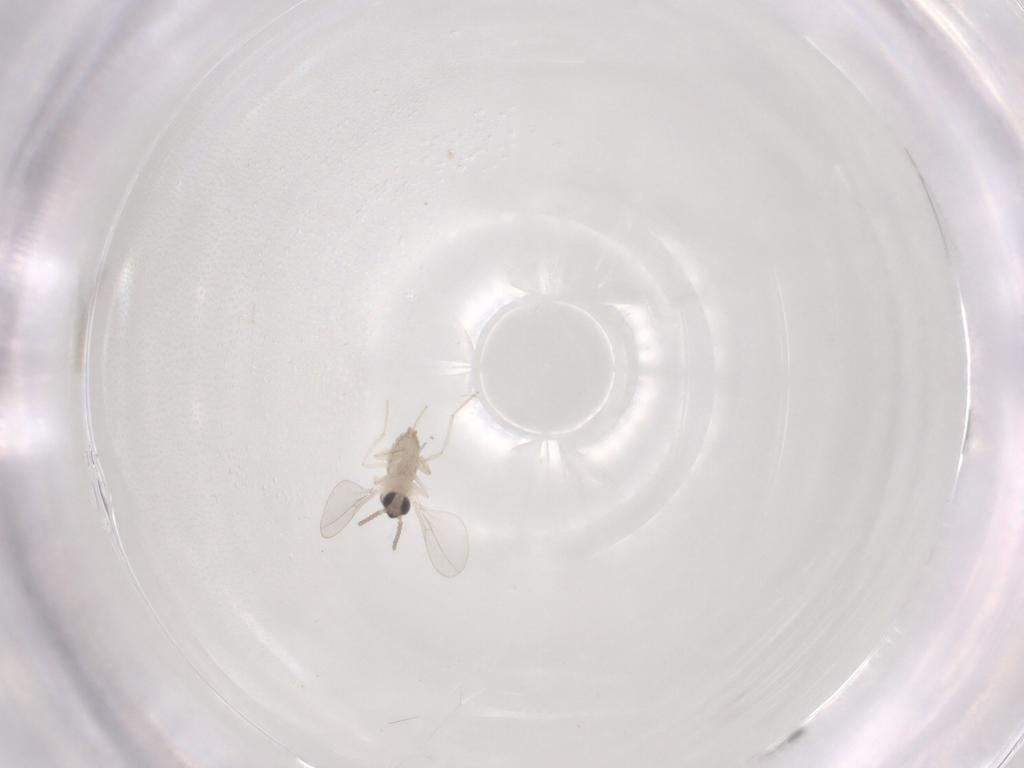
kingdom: Animalia
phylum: Arthropoda
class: Insecta
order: Diptera
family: Cecidomyiidae
